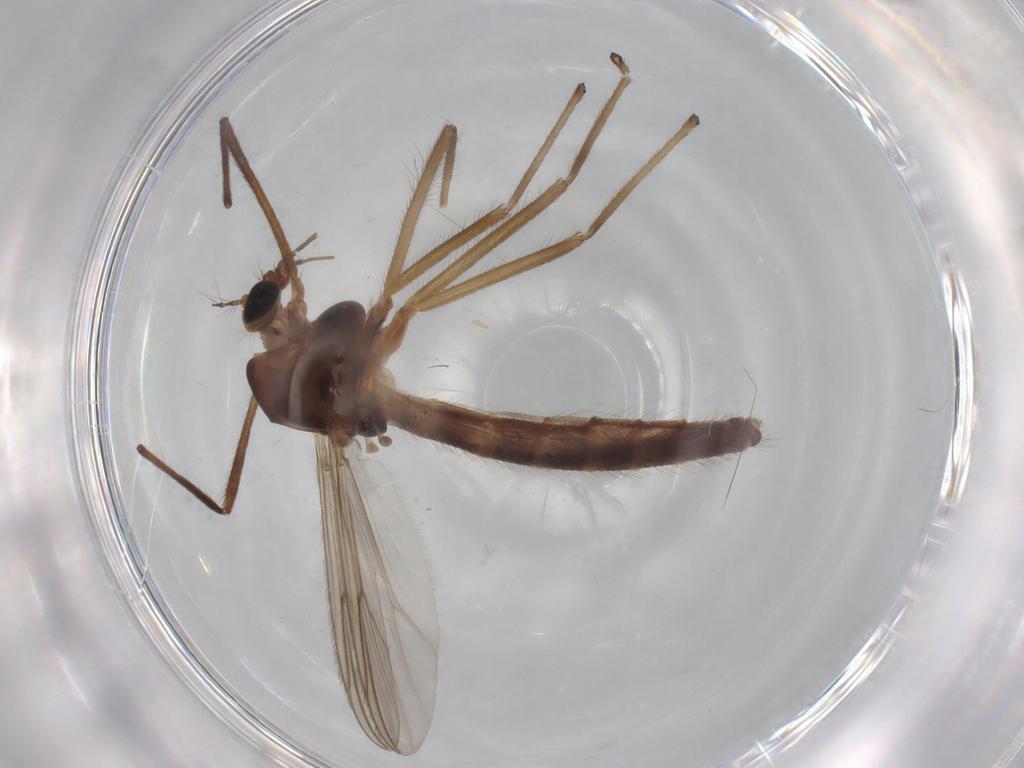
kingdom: Animalia
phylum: Arthropoda
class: Insecta
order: Diptera
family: Chironomidae
